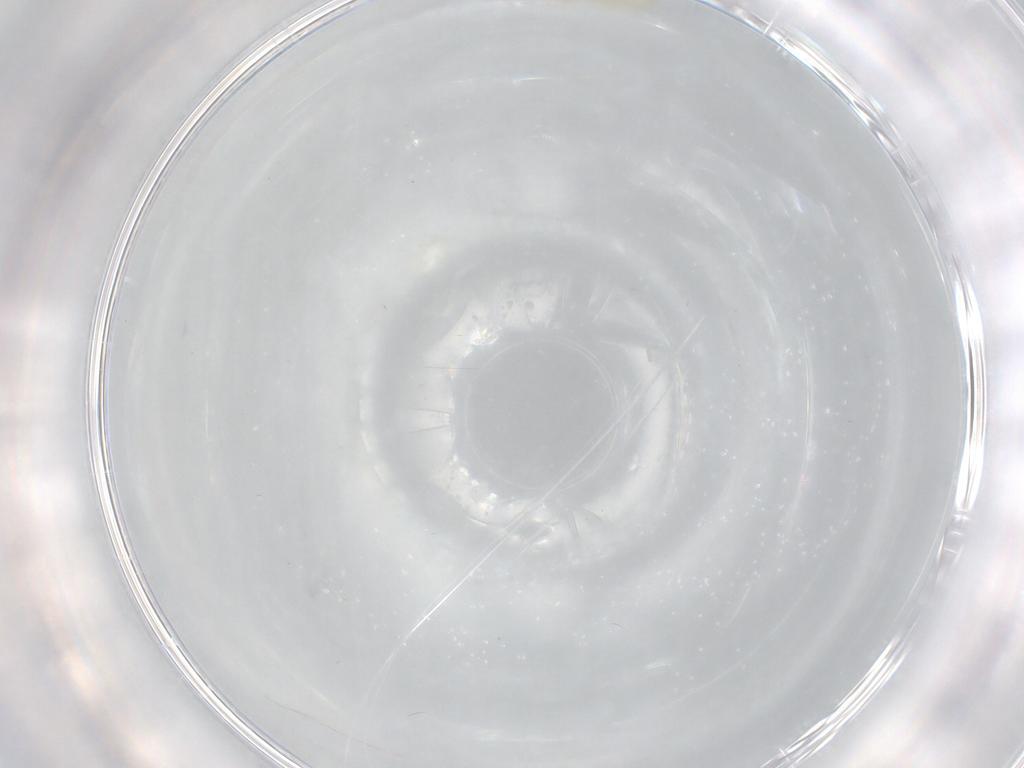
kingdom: Animalia
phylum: Arthropoda
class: Insecta
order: Diptera
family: Cecidomyiidae
